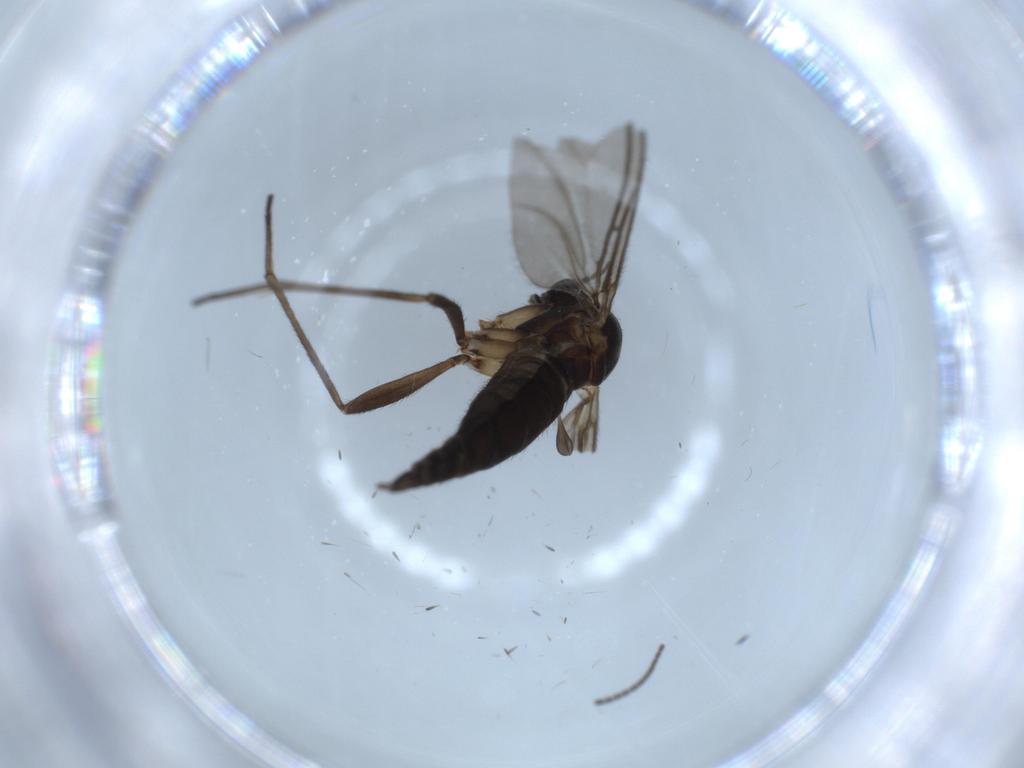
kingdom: Animalia
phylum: Arthropoda
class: Insecta
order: Diptera
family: Sciaridae
